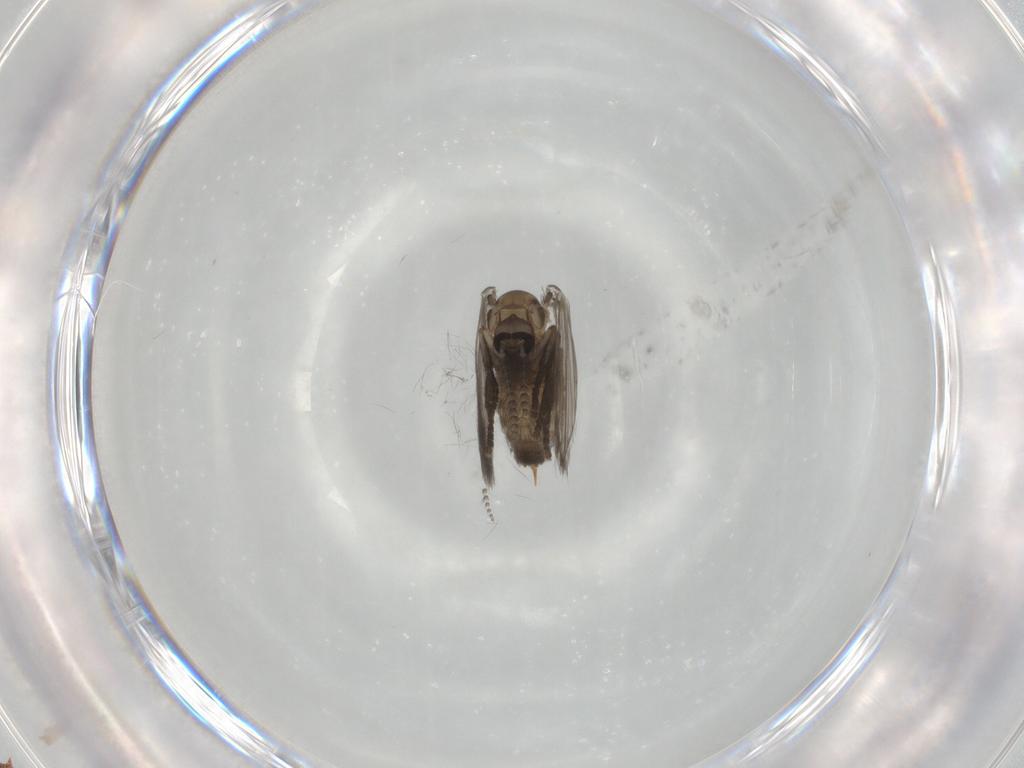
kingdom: Animalia
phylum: Arthropoda
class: Insecta
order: Diptera
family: Psychodidae
